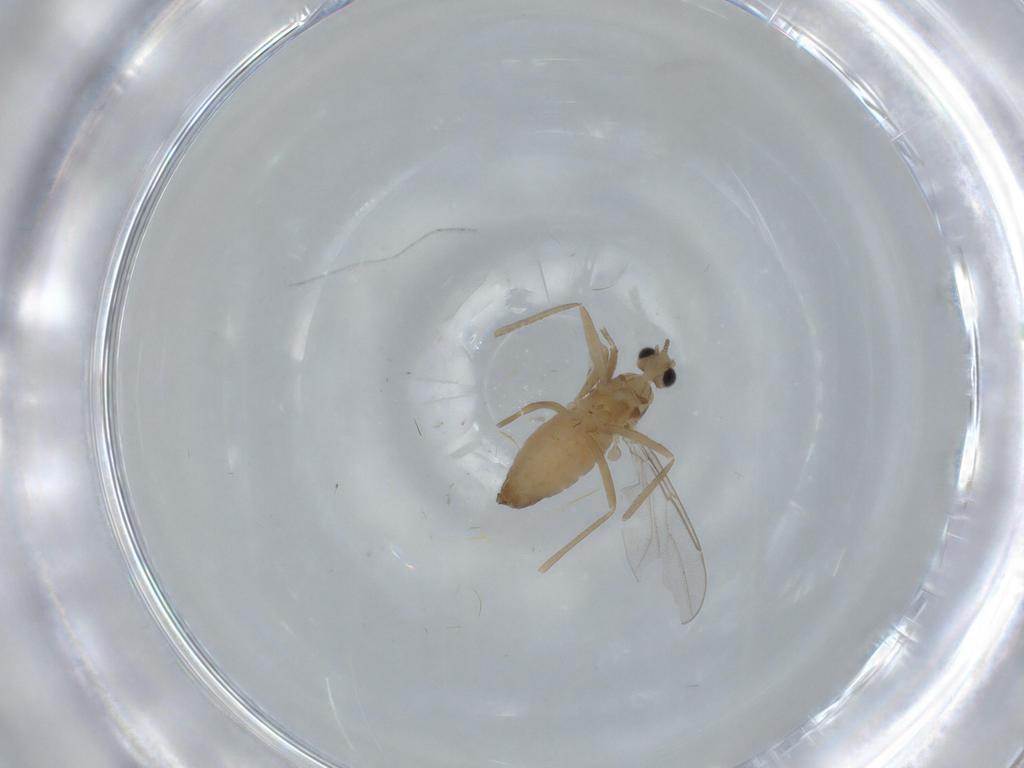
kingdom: Animalia
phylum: Arthropoda
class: Insecta
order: Diptera
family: Cecidomyiidae
